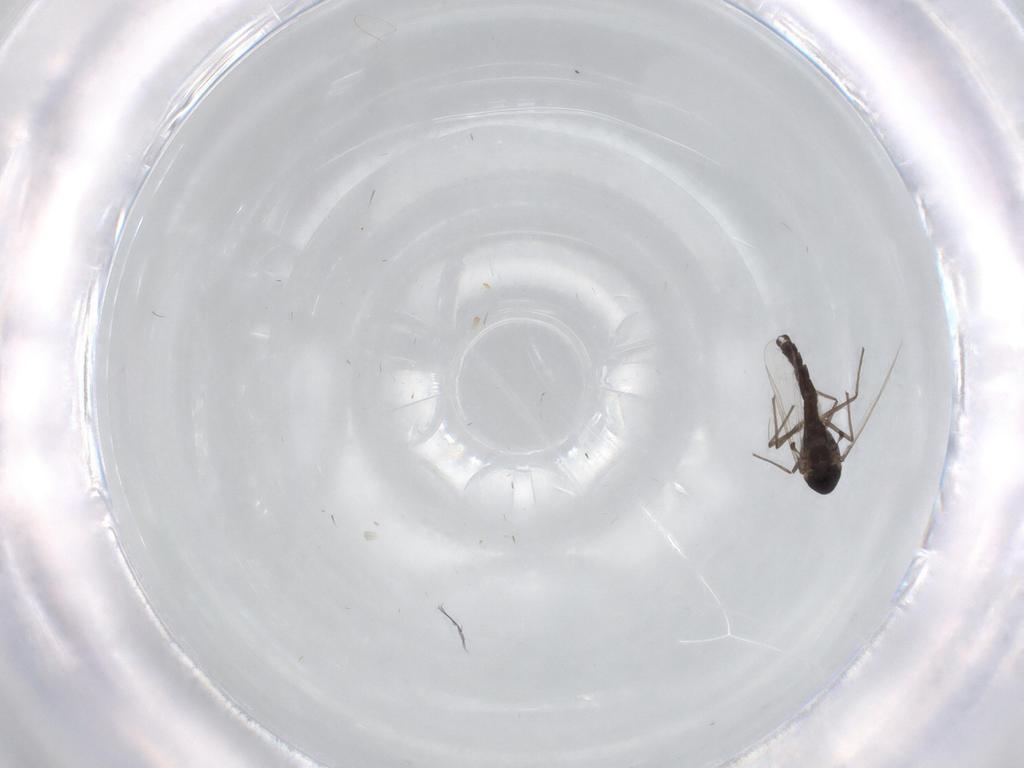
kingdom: Animalia
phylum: Arthropoda
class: Insecta
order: Diptera
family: Chironomidae
